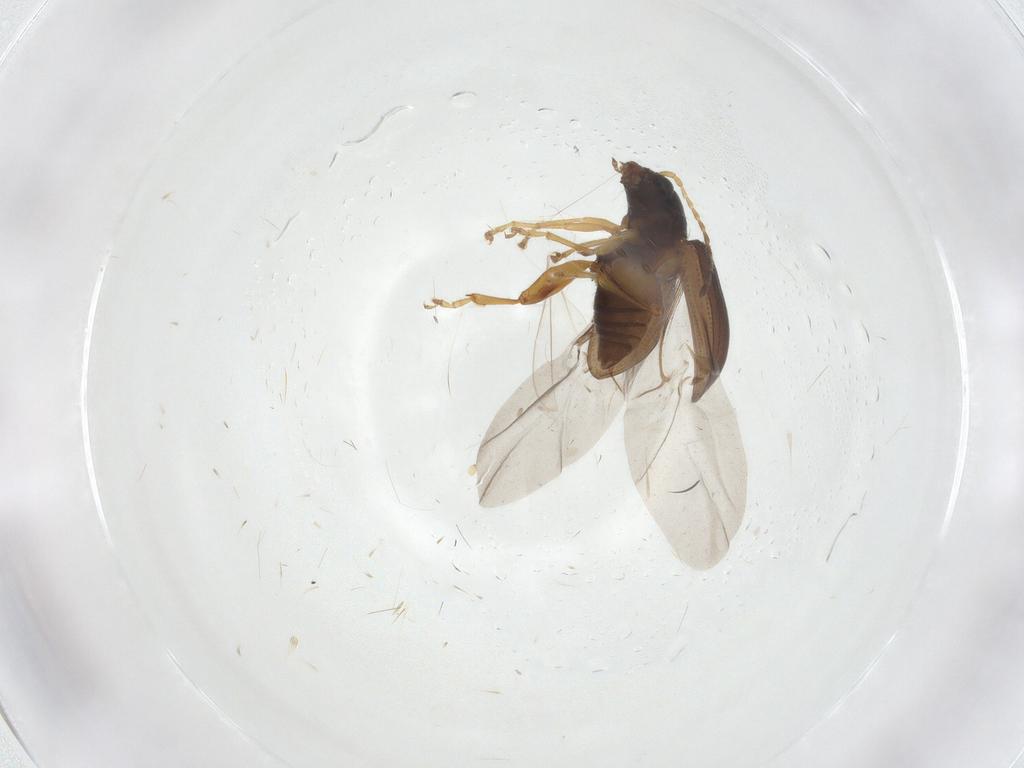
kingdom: Animalia
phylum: Arthropoda
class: Insecta
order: Coleoptera
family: Chrysomelidae
